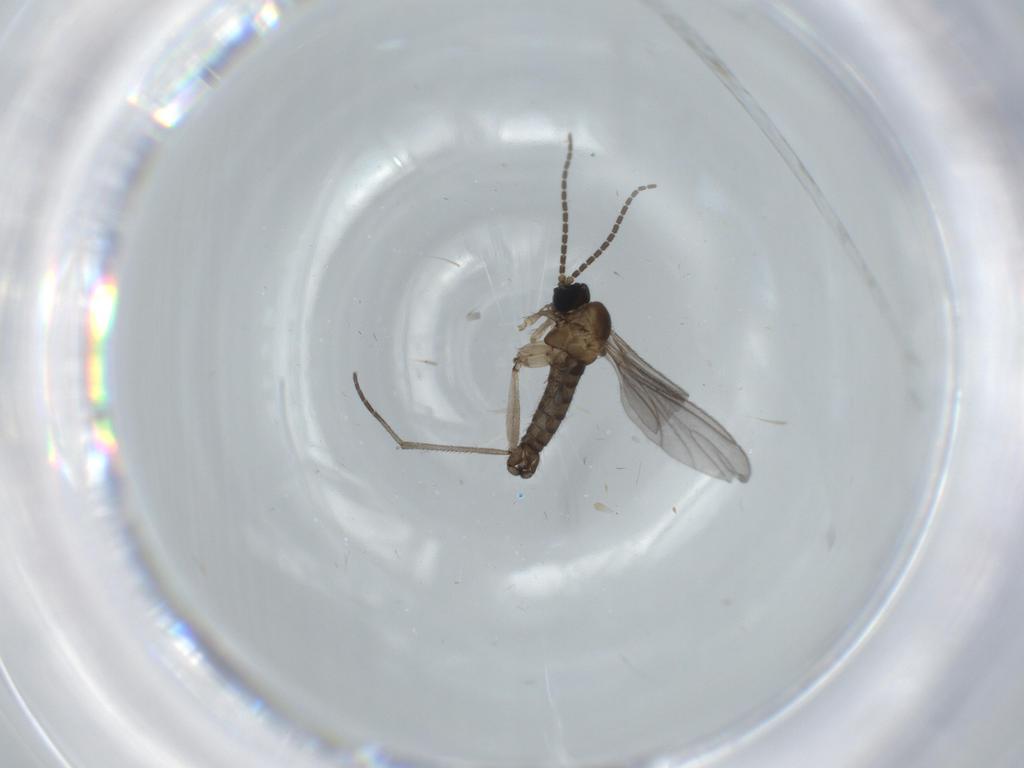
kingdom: Animalia
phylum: Arthropoda
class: Insecta
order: Diptera
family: Sciaridae
